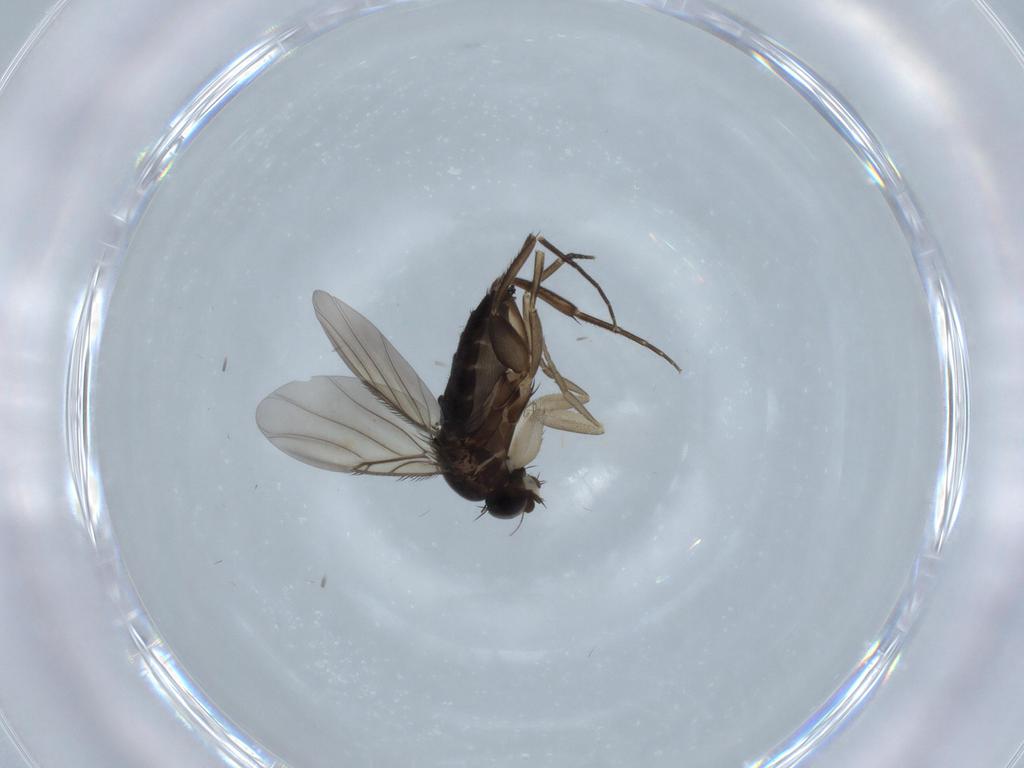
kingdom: Animalia
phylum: Arthropoda
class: Insecta
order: Diptera
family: Phoridae
